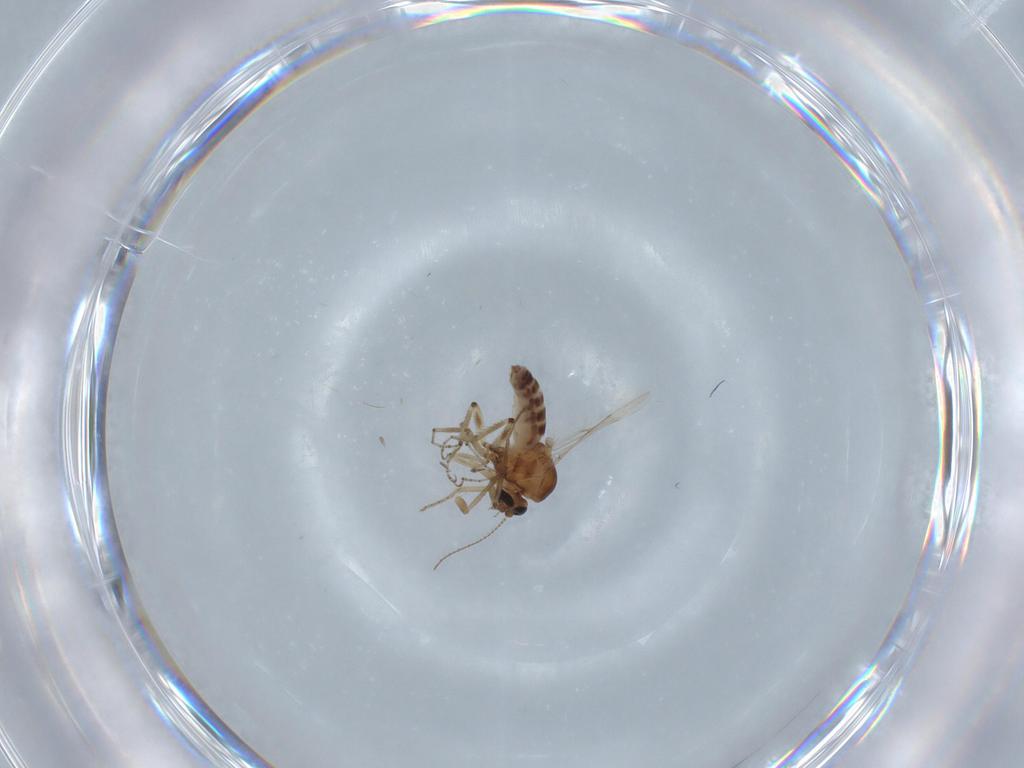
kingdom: Animalia
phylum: Arthropoda
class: Insecta
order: Diptera
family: Ceratopogonidae
